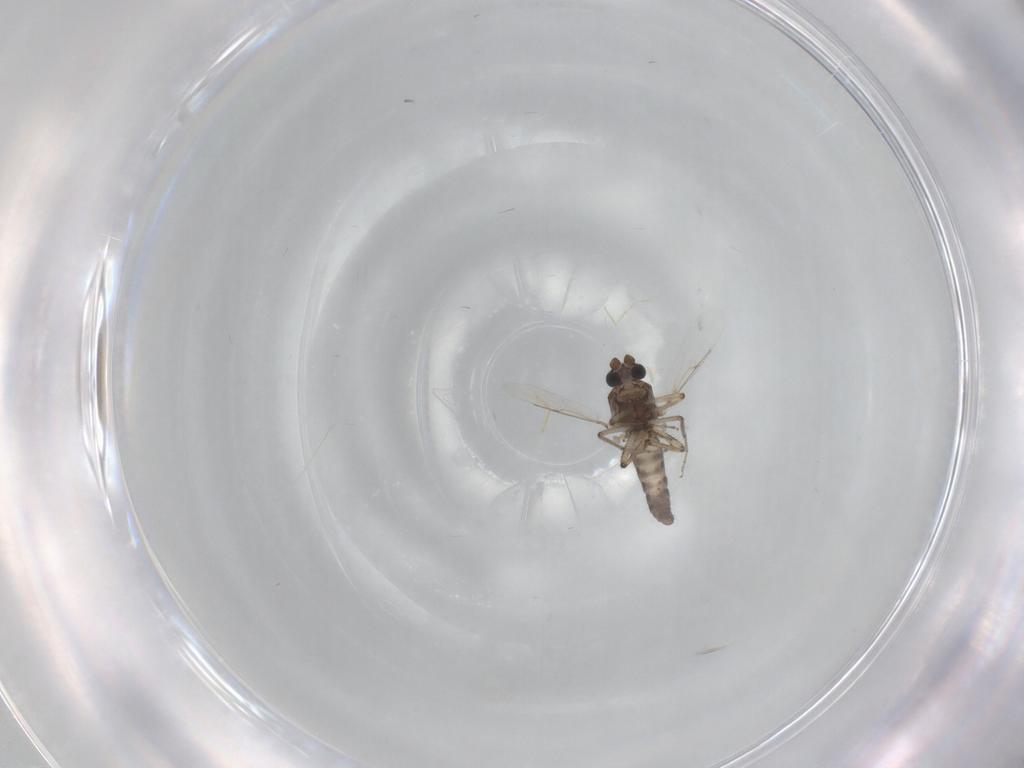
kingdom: Animalia
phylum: Arthropoda
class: Insecta
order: Diptera
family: Ceratopogonidae
